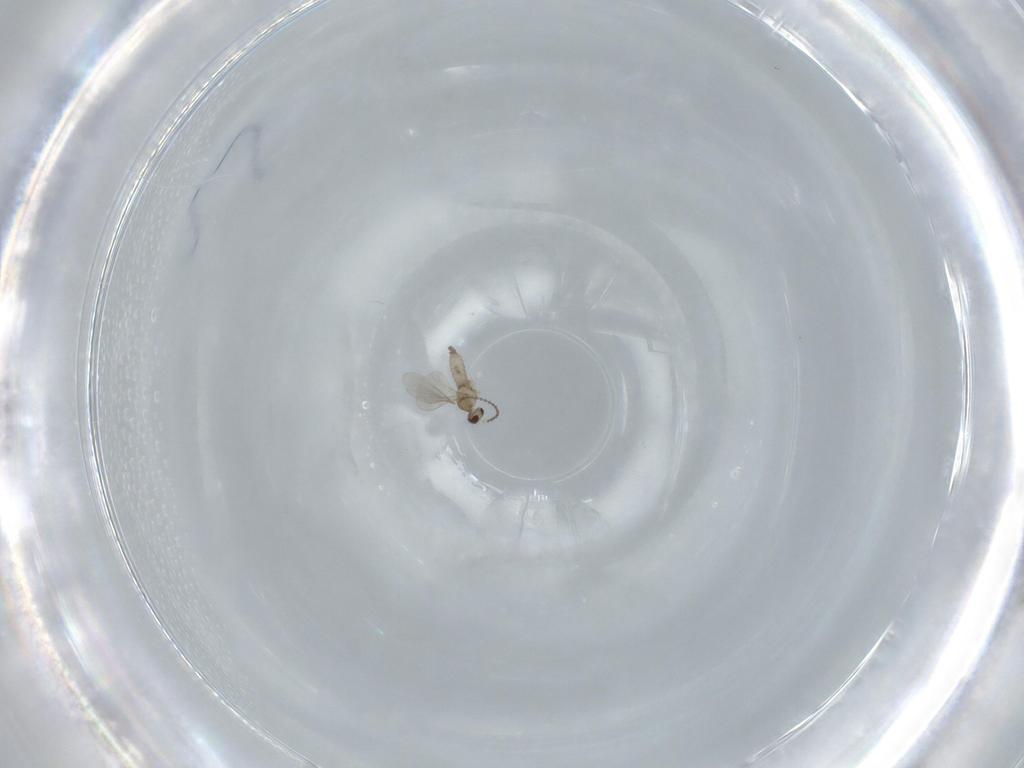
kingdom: Animalia
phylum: Arthropoda
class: Insecta
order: Diptera
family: Cecidomyiidae
